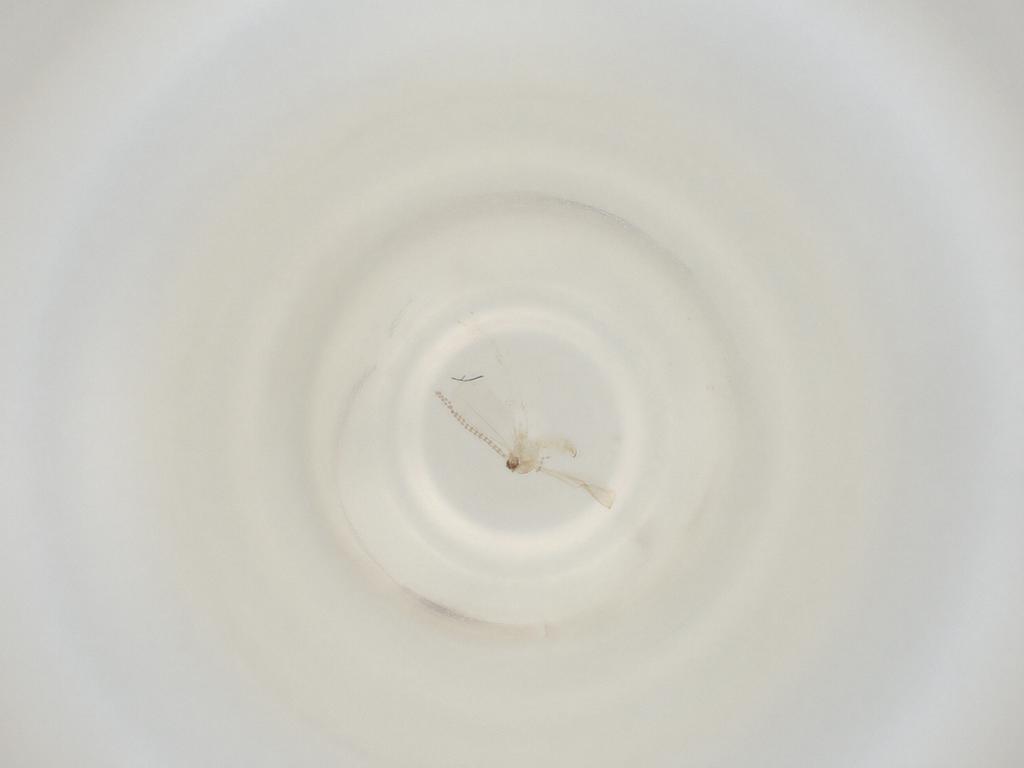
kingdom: Animalia
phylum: Arthropoda
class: Insecta
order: Diptera
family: Cecidomyiidae
